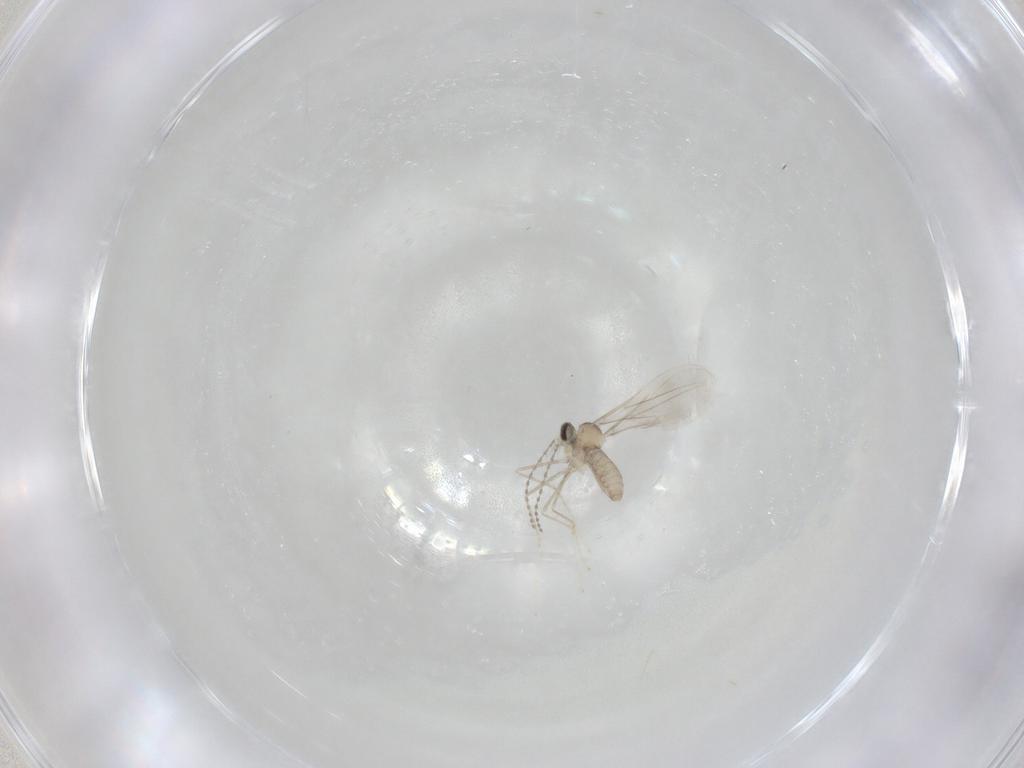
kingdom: Animalia
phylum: Arthropoda
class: Insecta
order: Diptera
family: Cecidomyiidae
